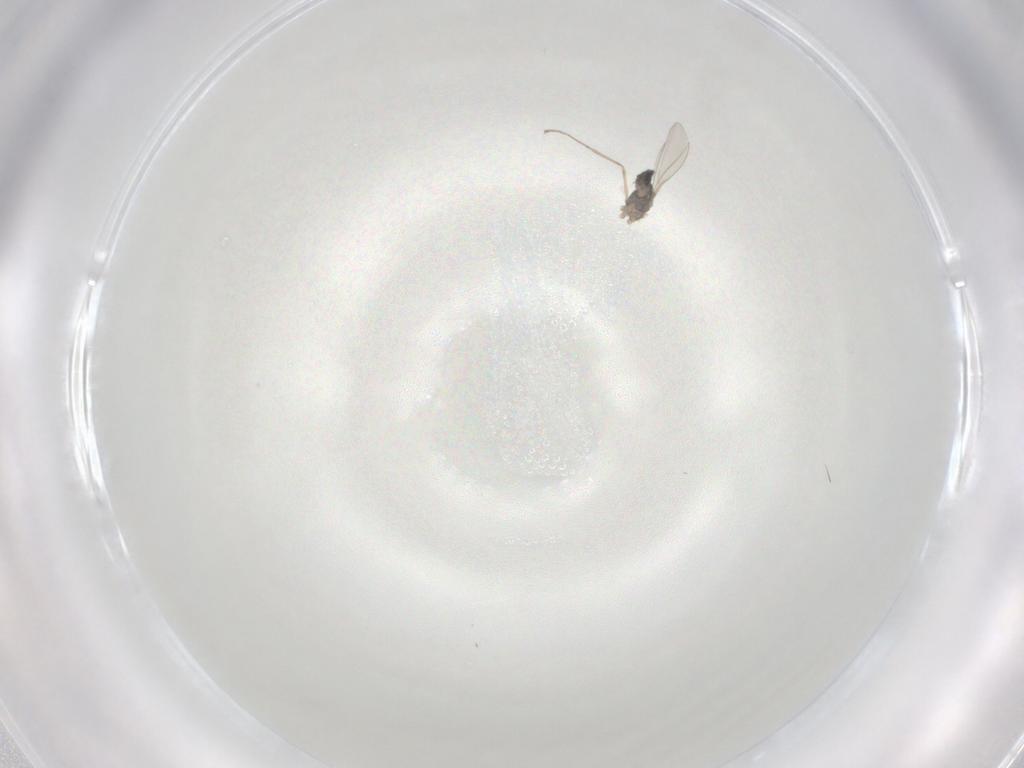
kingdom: Animalia
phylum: Arthropoda
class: Insecta
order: Diptera
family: Cecidomyiidae
